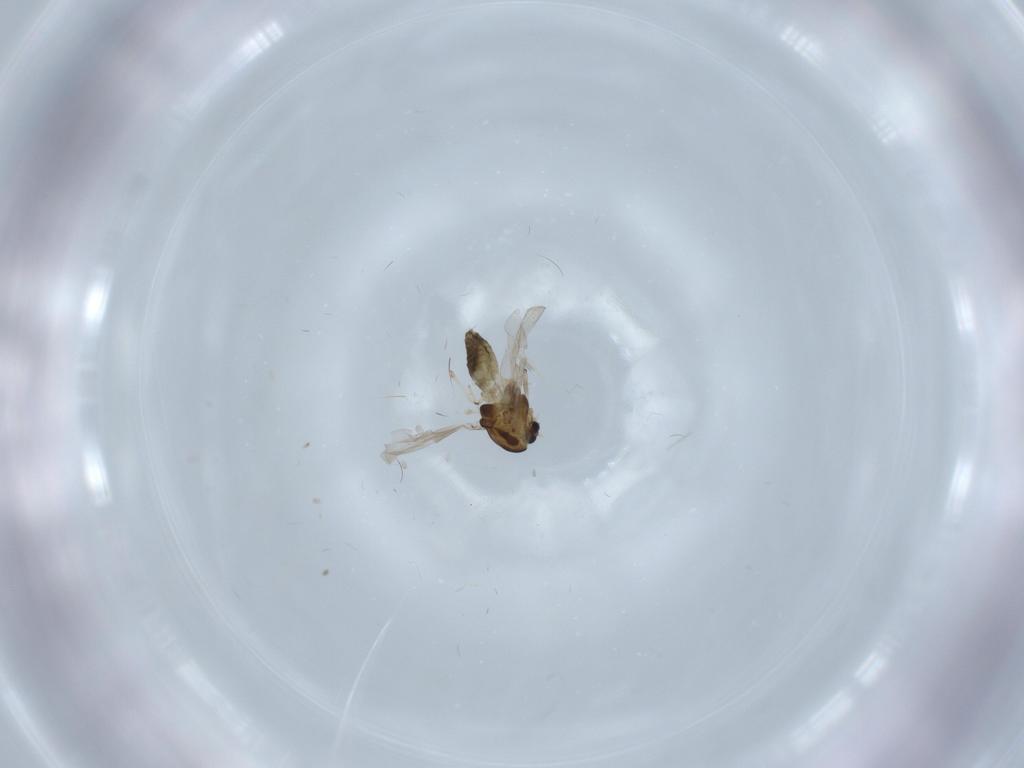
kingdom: Animalia
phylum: Arthropoda
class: Insecta
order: Diptera
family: Chironomidae
